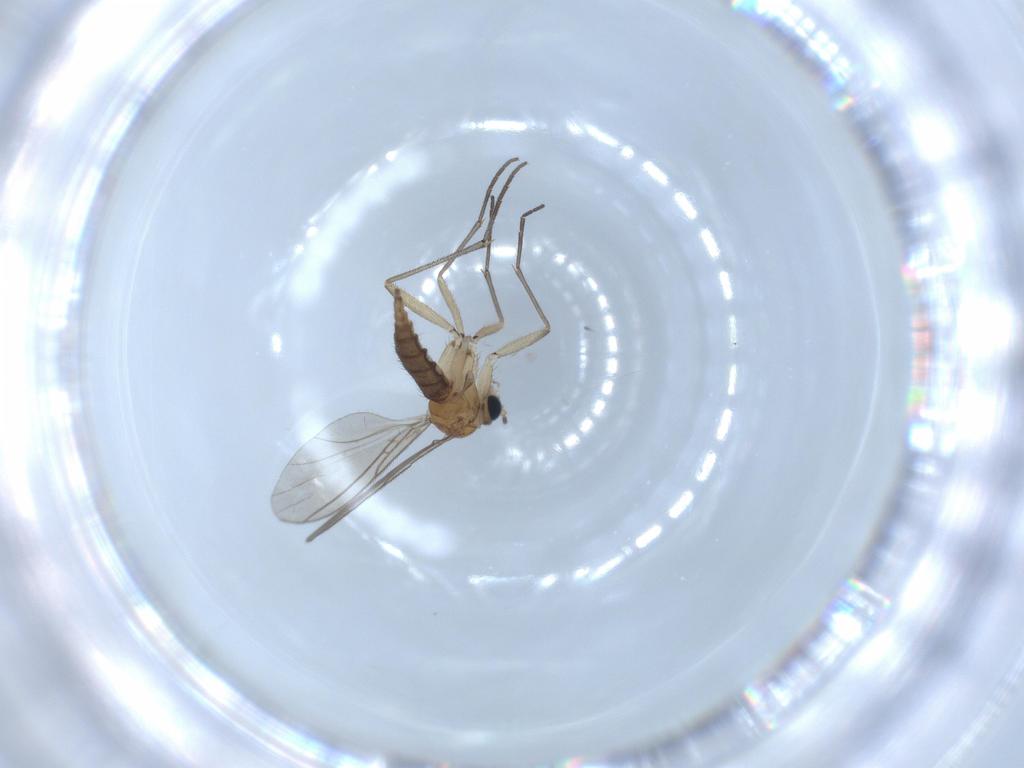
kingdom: Animalia
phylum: Arthropoda
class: Insecta
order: Diptera
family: Sciaridae
